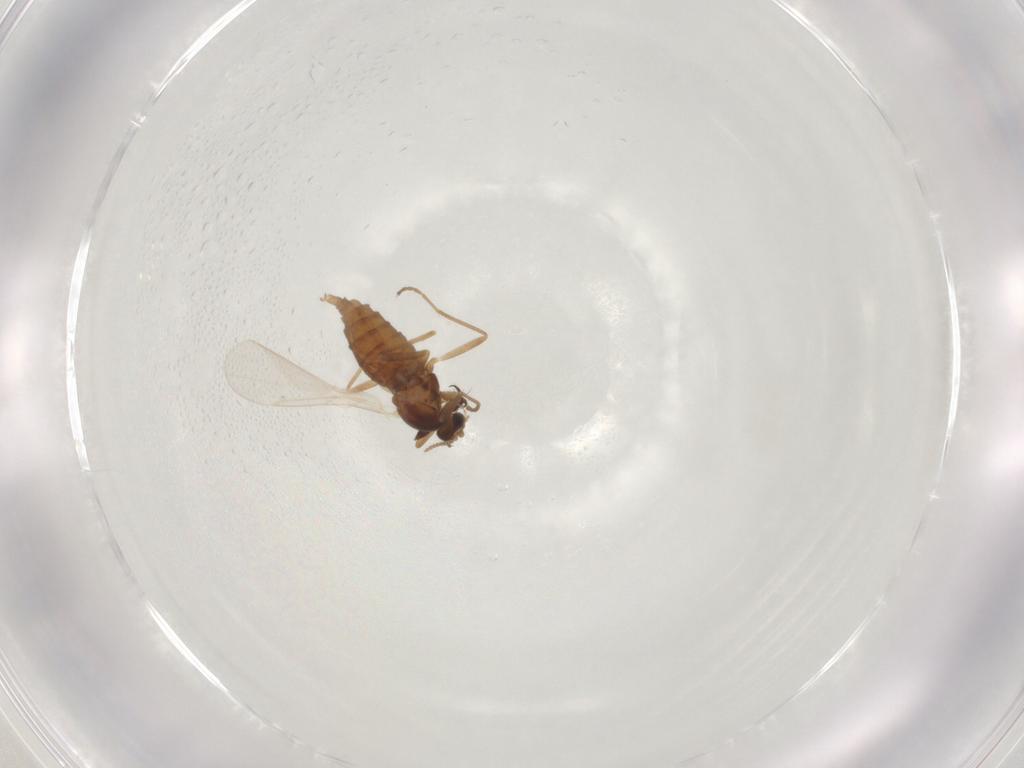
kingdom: Animalia
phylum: Arthropoda
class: Insecta
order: Diptera
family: Cecidomyiidae
